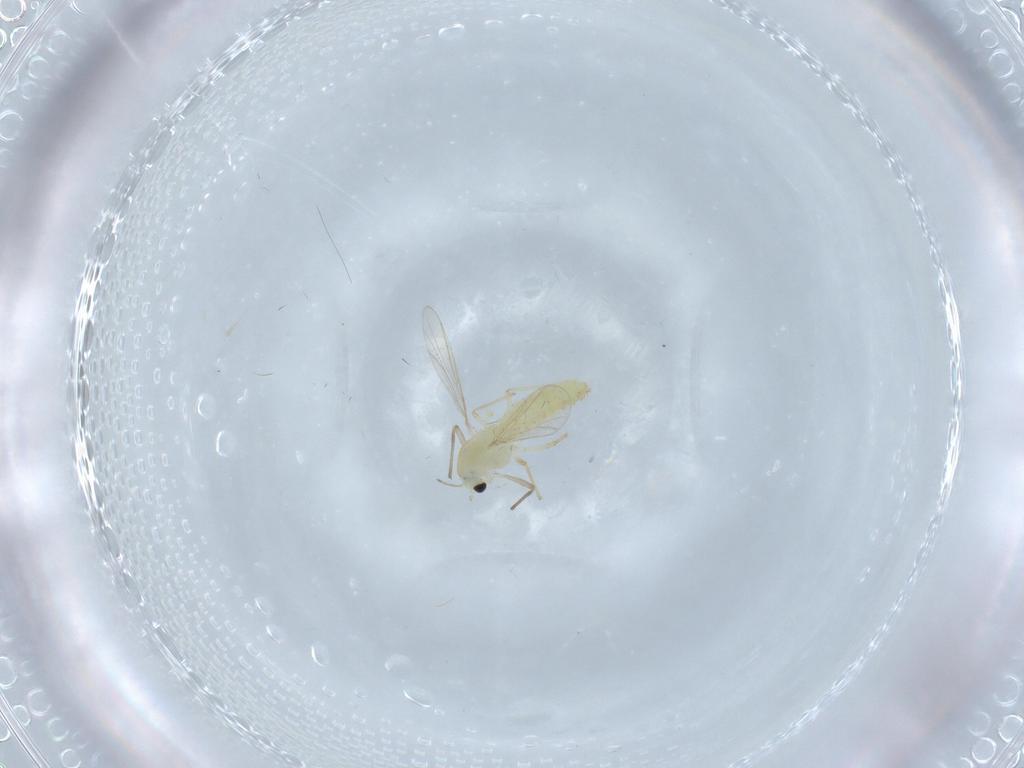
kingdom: Animalia
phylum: Arthropoda
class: Insecta
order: Diptera
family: Chironomidae
